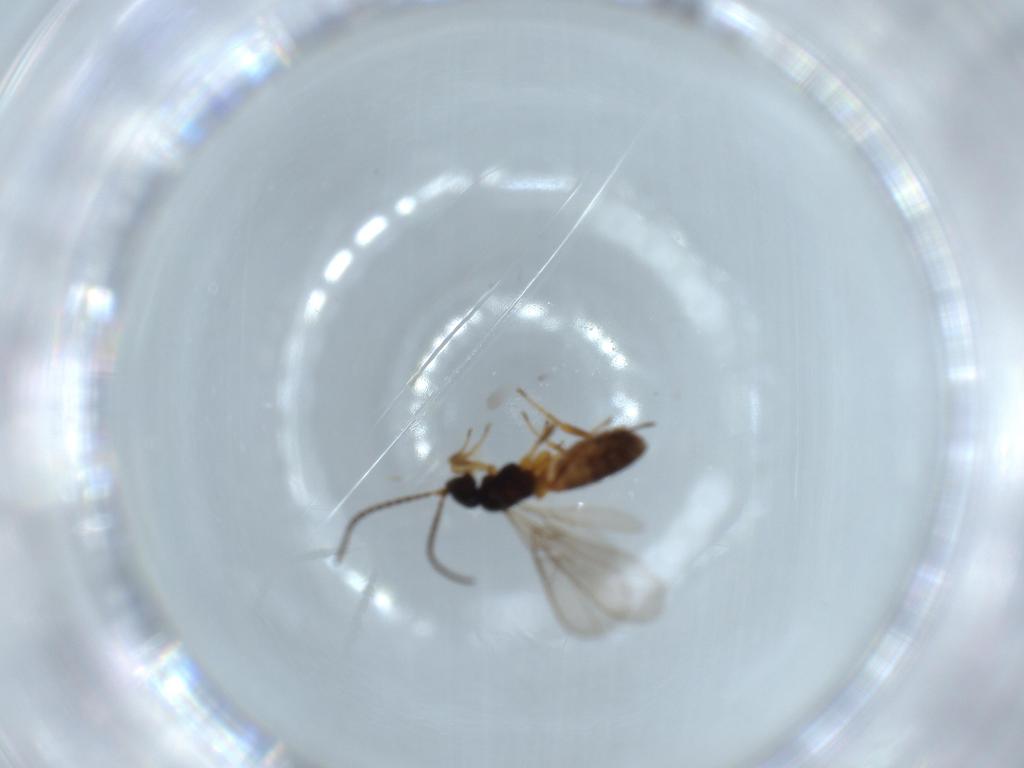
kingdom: Animalia
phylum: Arthropoda
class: Insecta
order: Hymenoptera
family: Braconidae
